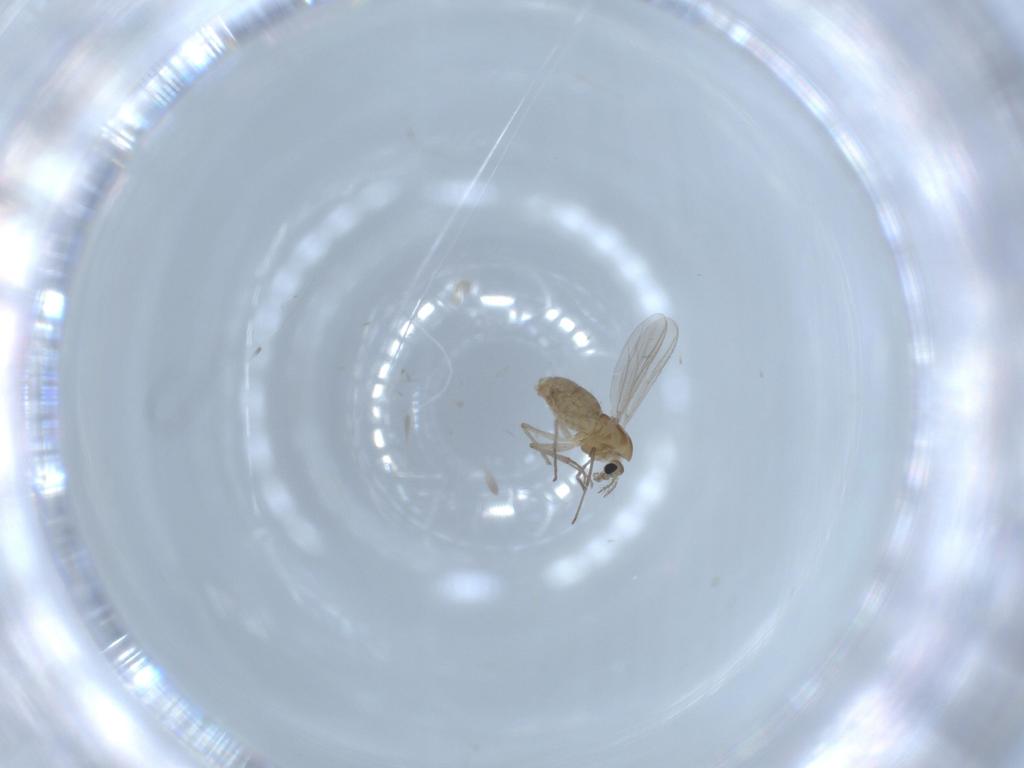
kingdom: Animalia
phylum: Arthropoda
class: Insecta
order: Diptera
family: Chironomidae
